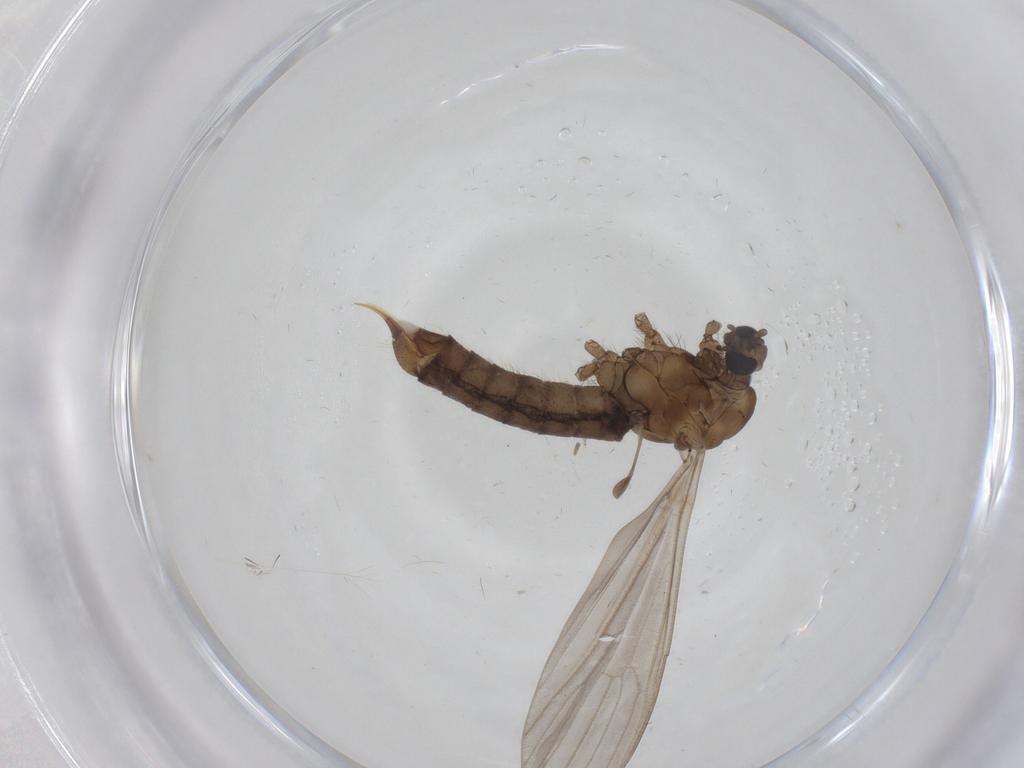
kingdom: Animalia
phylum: Arthropoda
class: Insecta
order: Diptera
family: Limoniidae
